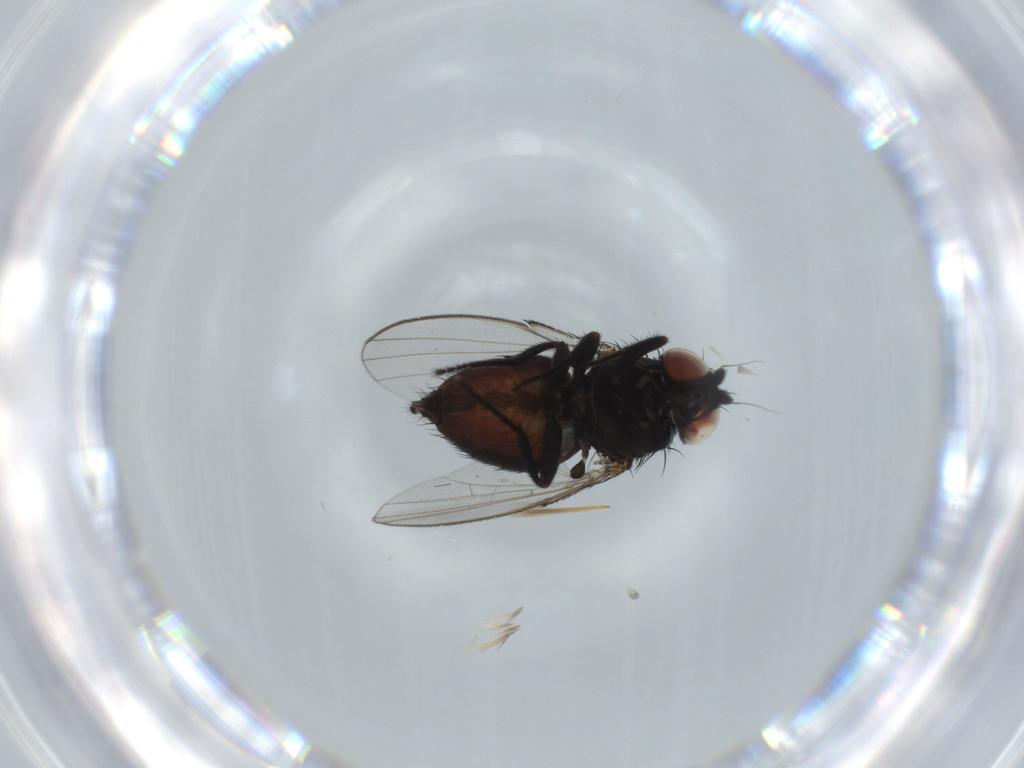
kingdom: Animalia
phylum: Arthropoda
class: Insecta
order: Diptera
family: Milichiidae
